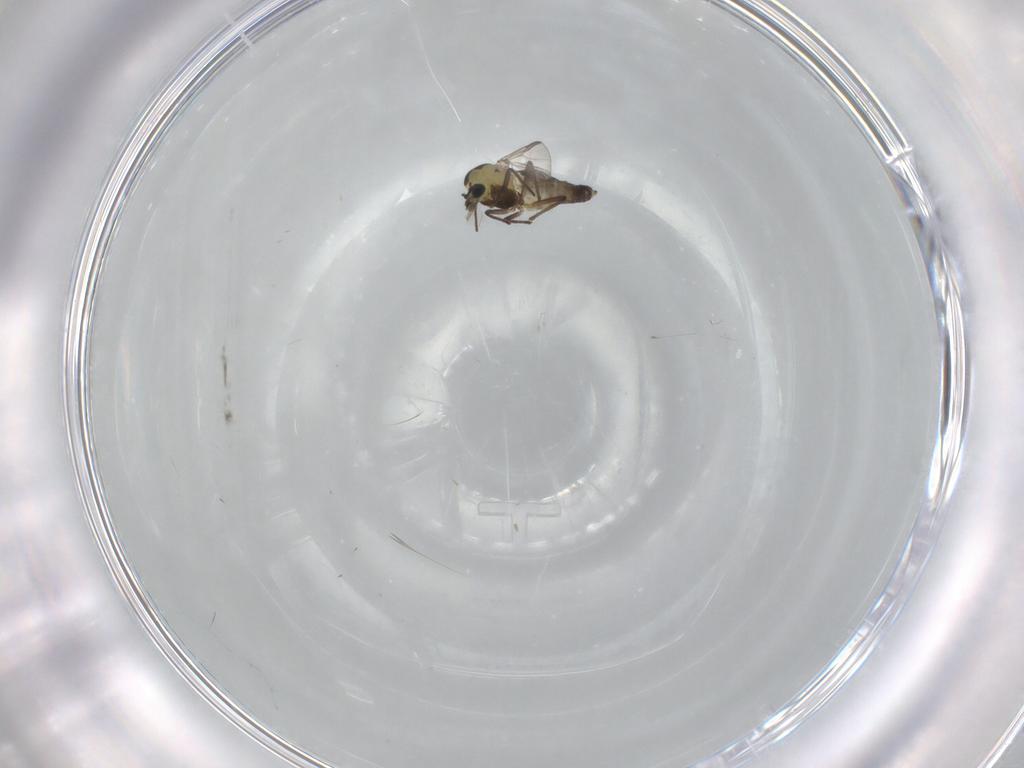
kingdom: Animalia
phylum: Arthropoda
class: Insecta
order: Diptera
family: Chironomidae
